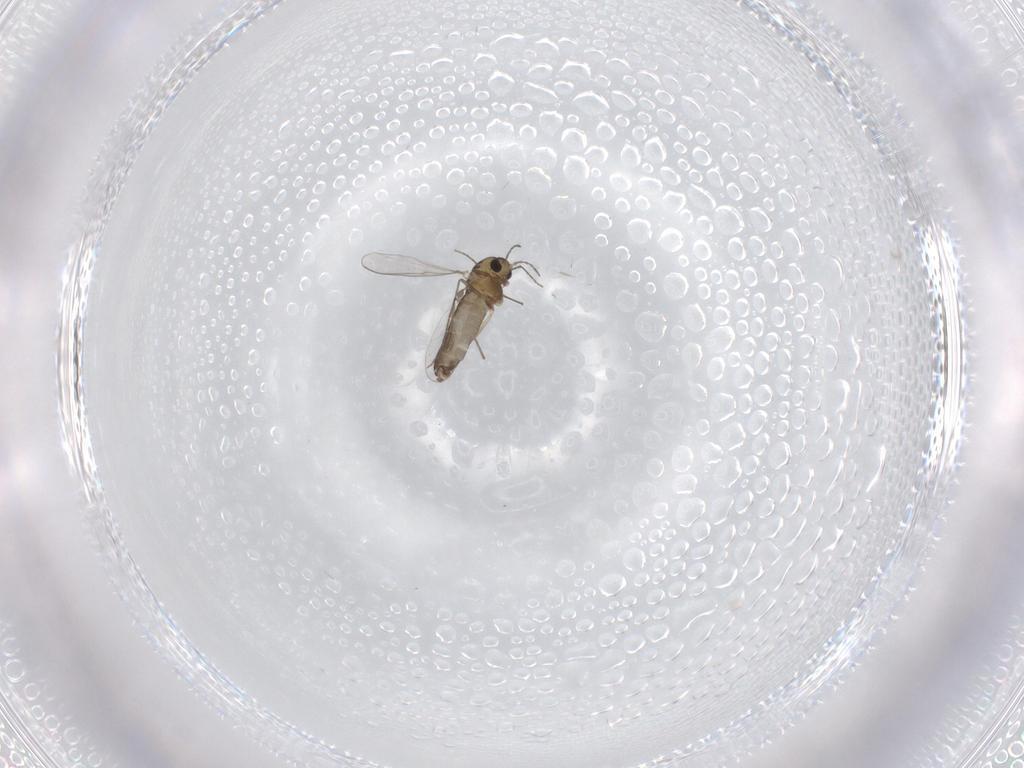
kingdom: Animalia
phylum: Arthropoda
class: Insecta
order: Diptera
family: Chironomidae
